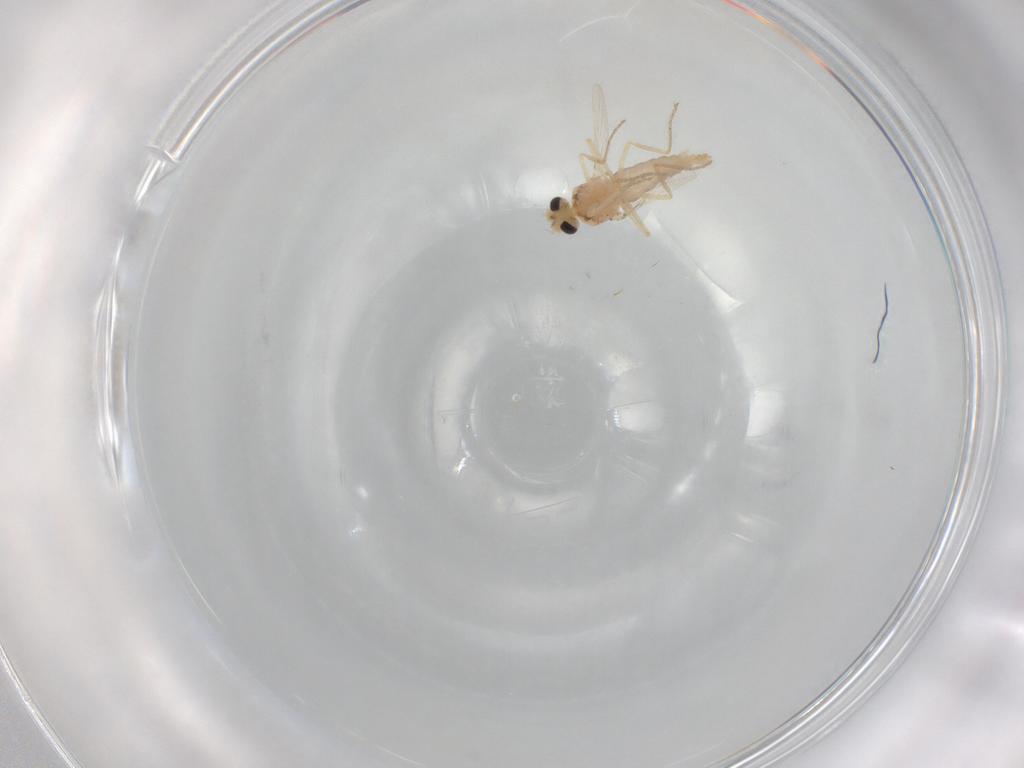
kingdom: Animalia
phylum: Arthropoda
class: Insecta
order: Diptera
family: Ceratopogonidae
